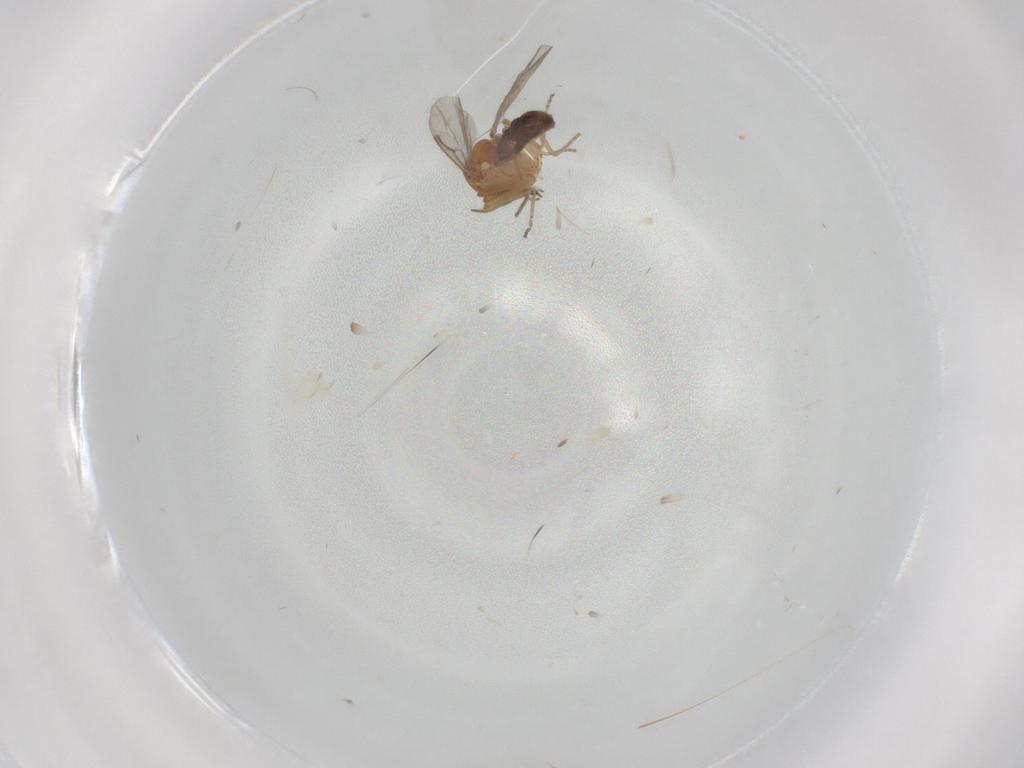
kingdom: Animalia
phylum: Arthropoda
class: Insecta
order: Diptera
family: Ceratopogonidae
